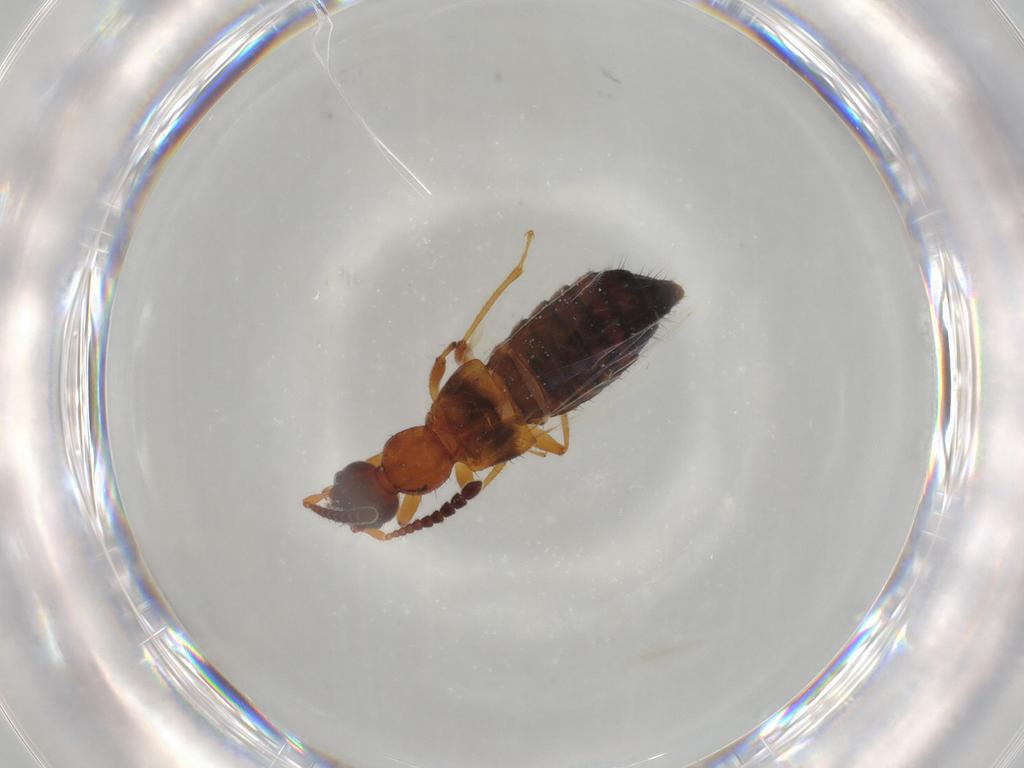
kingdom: Animalia
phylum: Arthropoda
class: Insecta
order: Coleoptera
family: Staphylinidae
